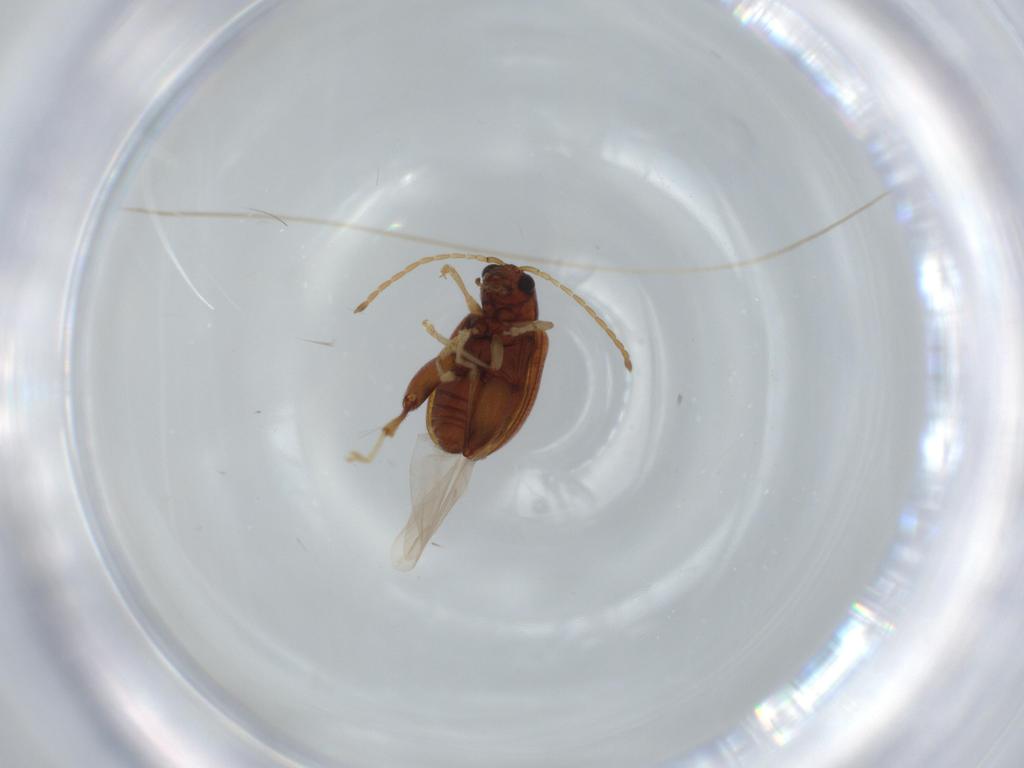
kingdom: Animalia
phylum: Arthropoda
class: Insecta
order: Coleoptera
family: Chrysomelidae
